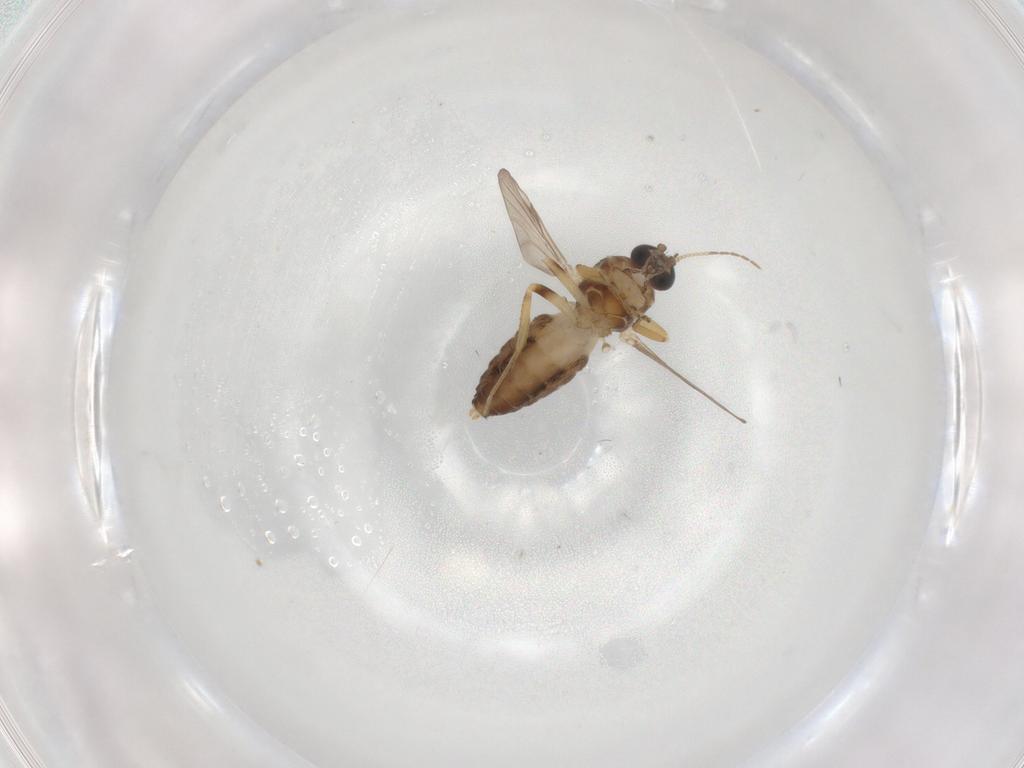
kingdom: Animalia
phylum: Arthropoda
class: Insecta
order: Diptera
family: Ceratopogonidae
